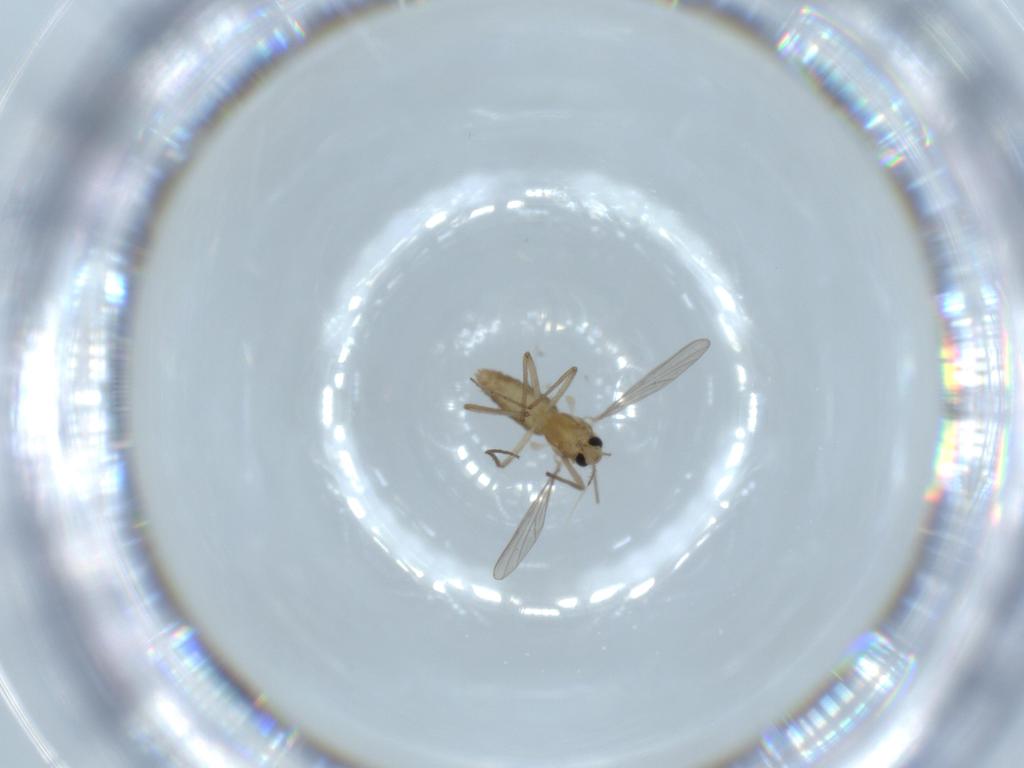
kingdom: Animalia
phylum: Arthropoda
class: Insecta
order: Diptera
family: Chironomidae
